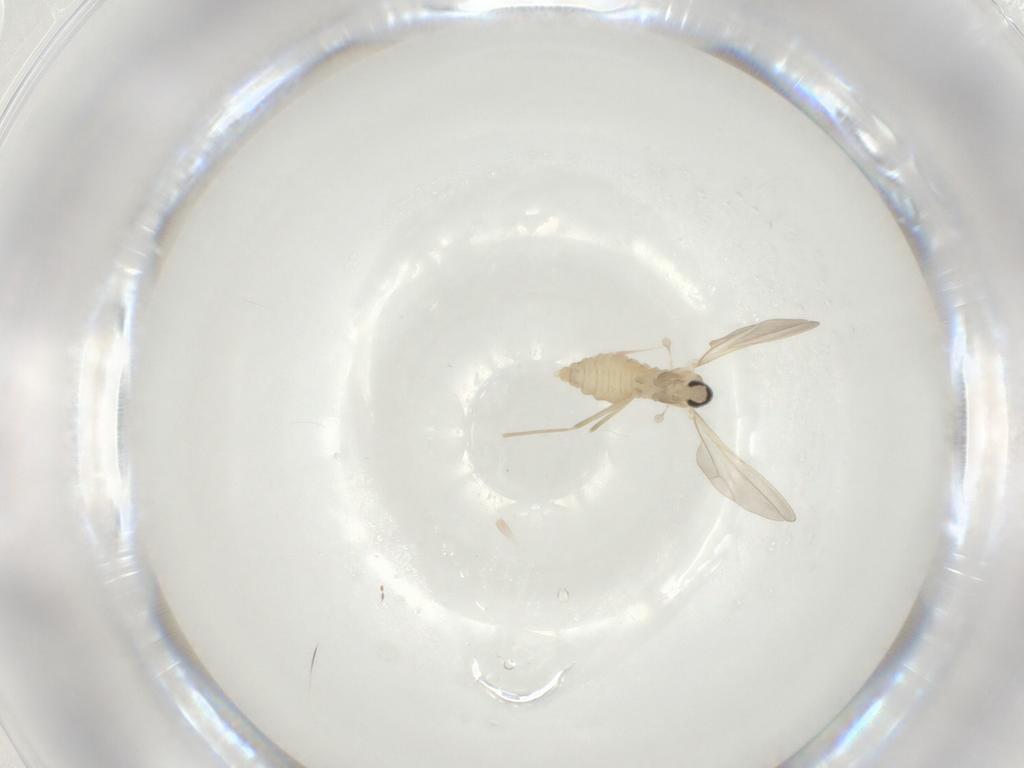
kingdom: Animalia
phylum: Arthropoda
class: Insecta
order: Diptera
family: Cecidomyiidae
